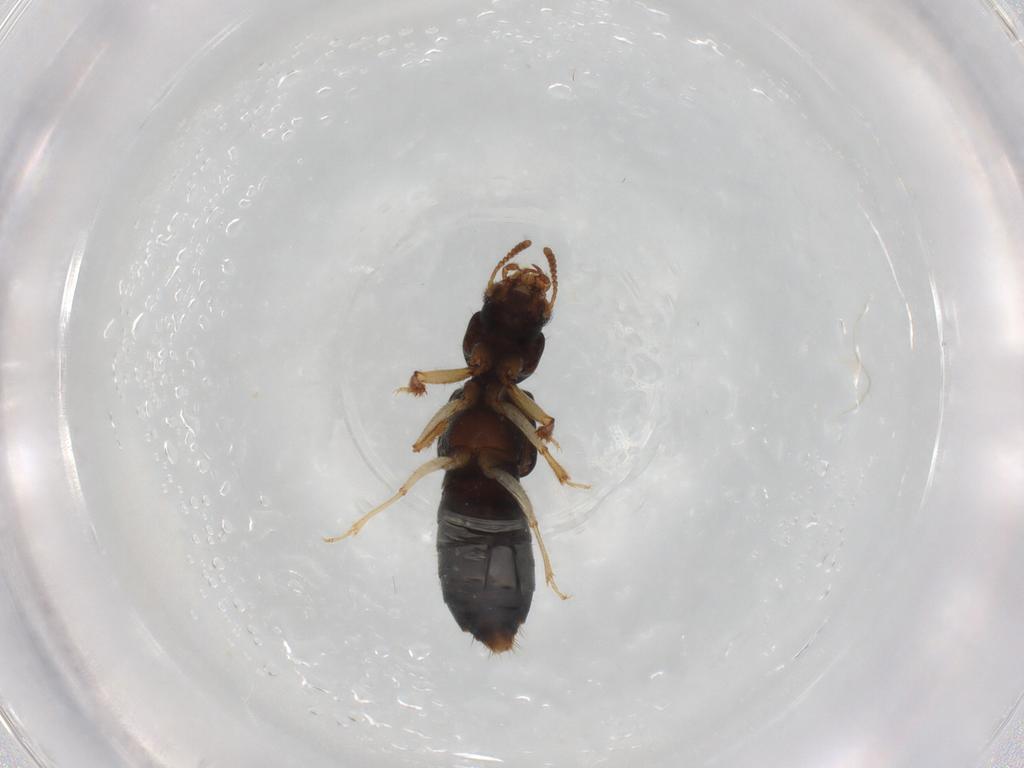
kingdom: Animalia
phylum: Arthropoda
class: Insecta
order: Coleoptera
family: Staphylinidae
